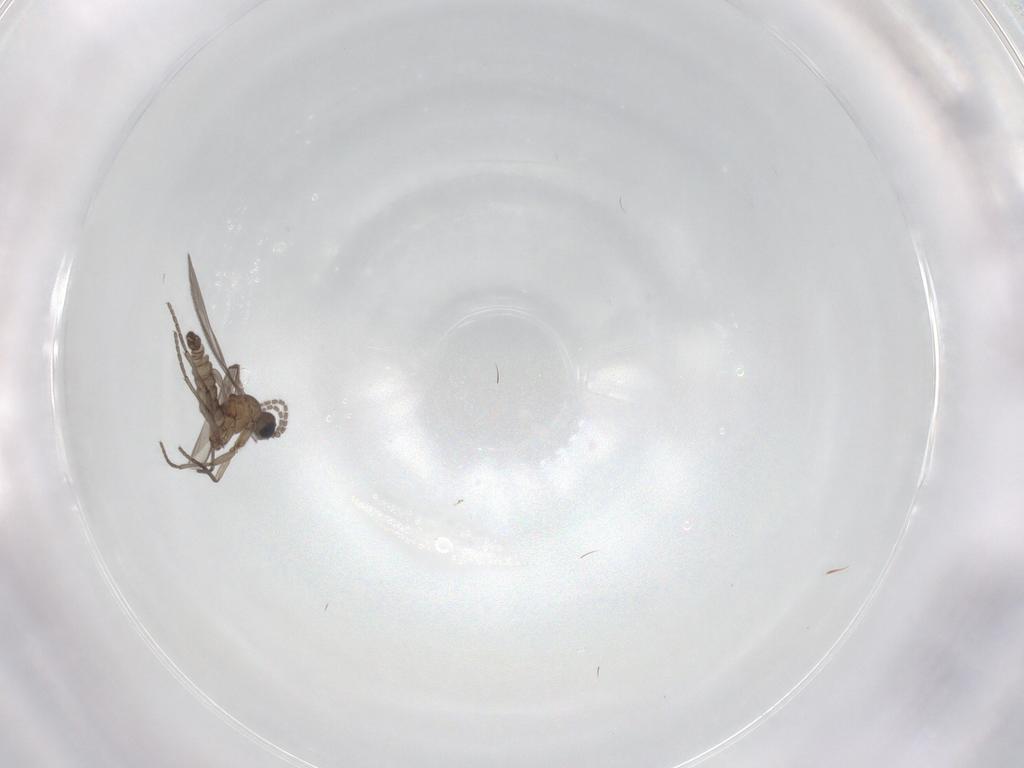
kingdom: Animalia
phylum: Arthropoda
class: Insecta
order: Diptera
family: Sciaridae
